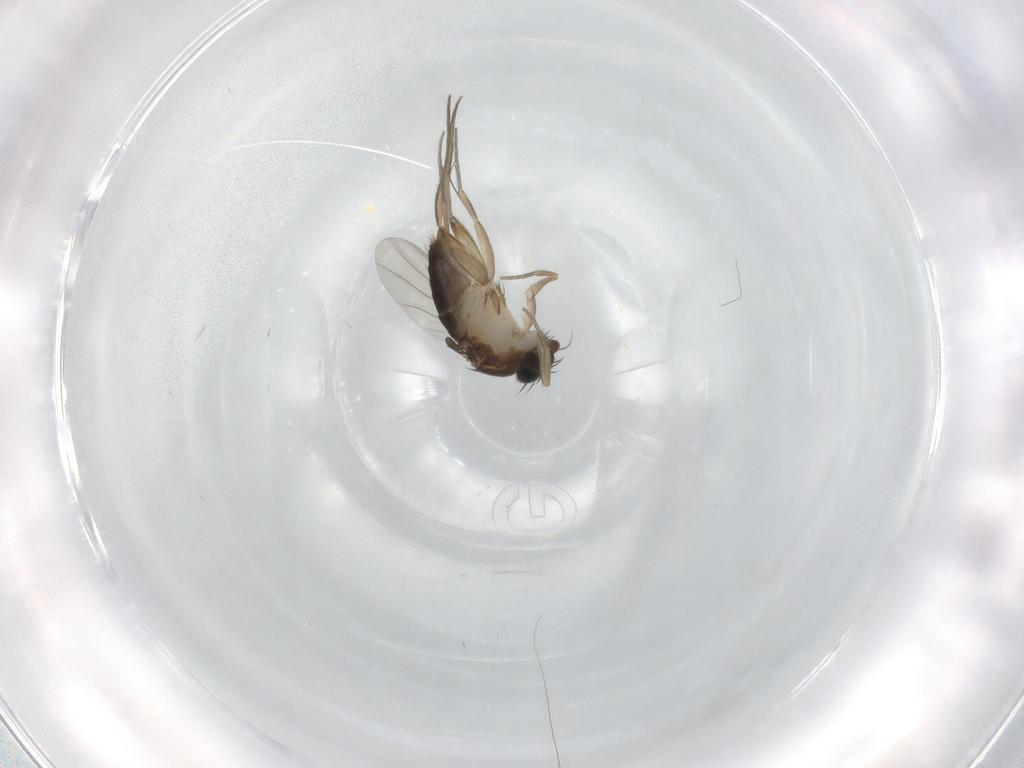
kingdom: Animalia
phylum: Arthropoda
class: Insecta
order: Diptera
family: Phoridae
